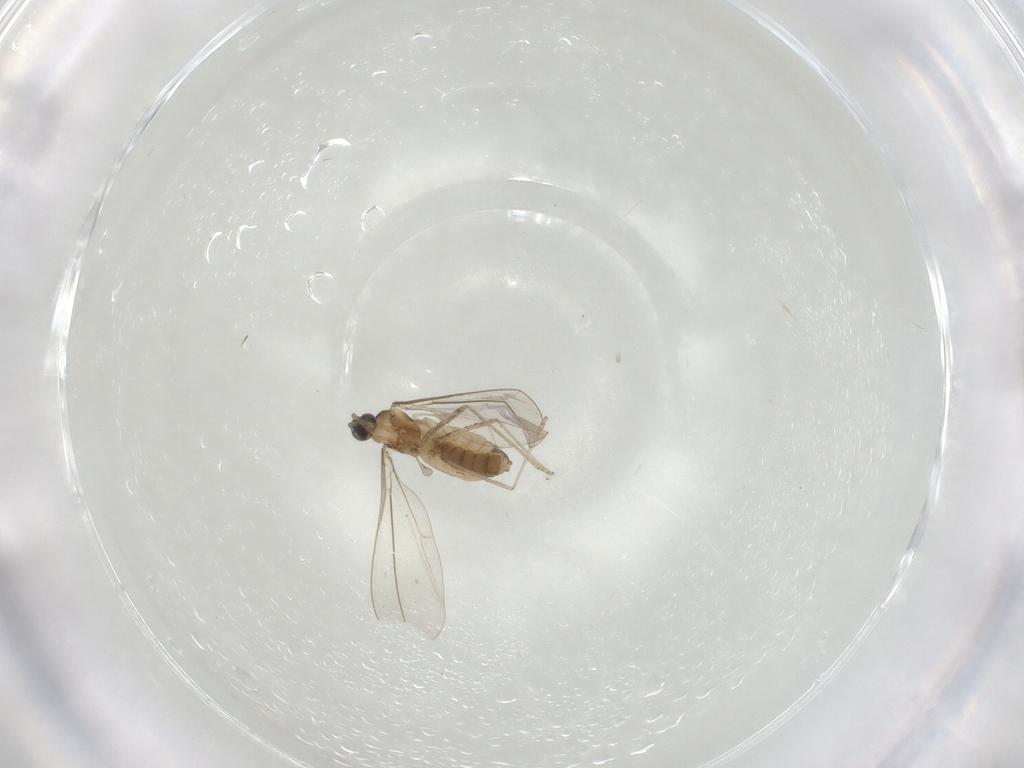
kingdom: Animalia
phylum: Arthropoda
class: Insecta
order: Diptera
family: Cecidomyiidae
